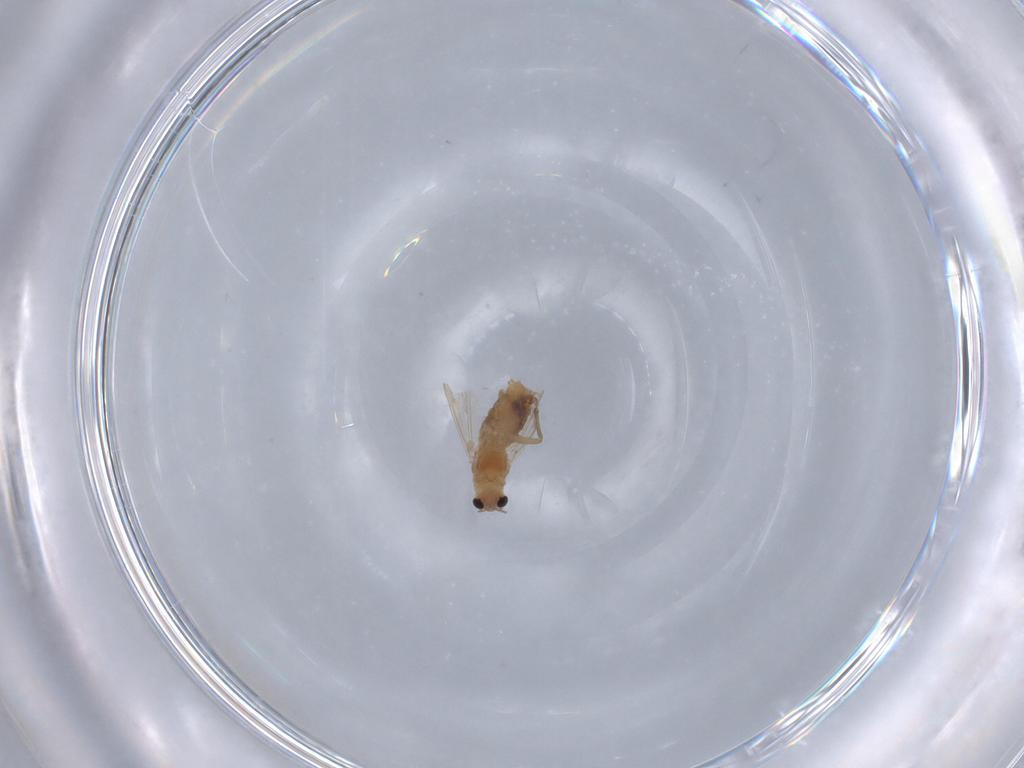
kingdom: Animalia
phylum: Arthropoda
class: Insecta
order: Diptera
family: Chironomidae
